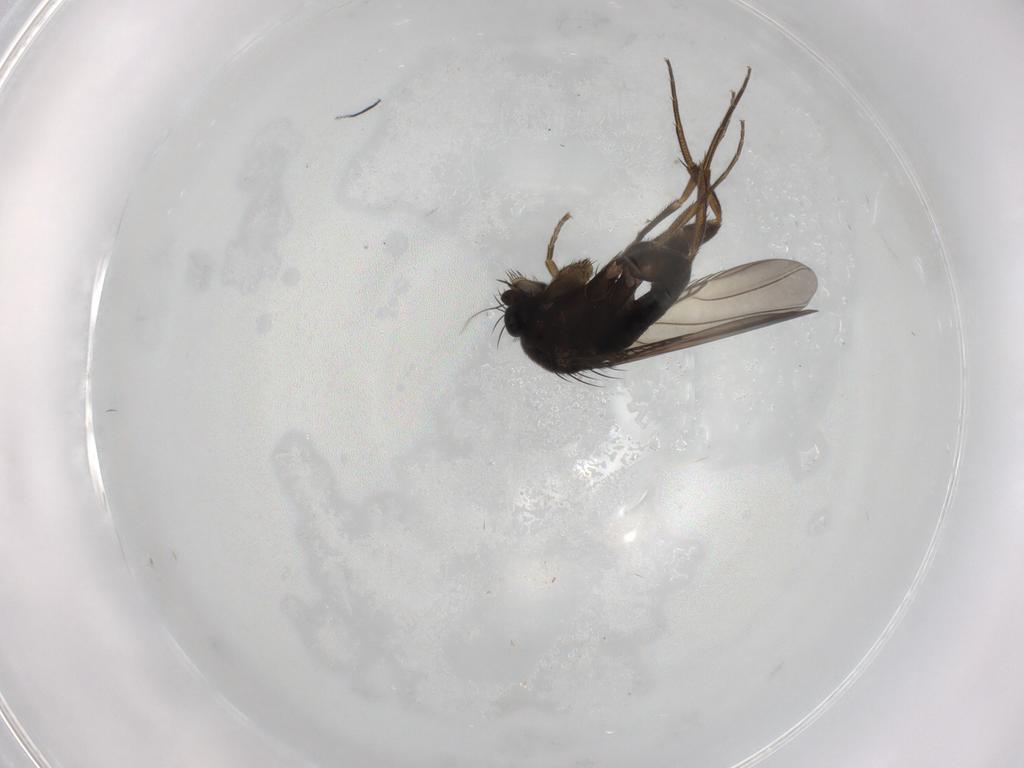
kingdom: Animalia
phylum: Arthropoda
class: Insecta
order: Diptera
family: Phoridae
